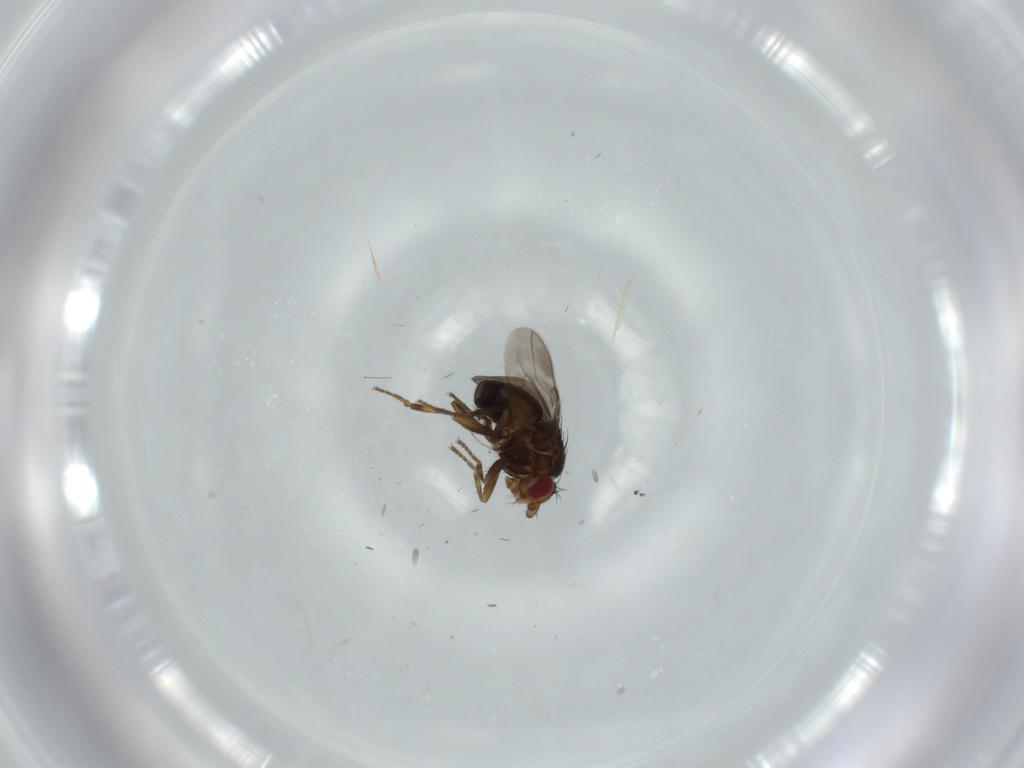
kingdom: Animalia
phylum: Arthropoda
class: Insecta
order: Diptera
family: Sphaeroceridae
